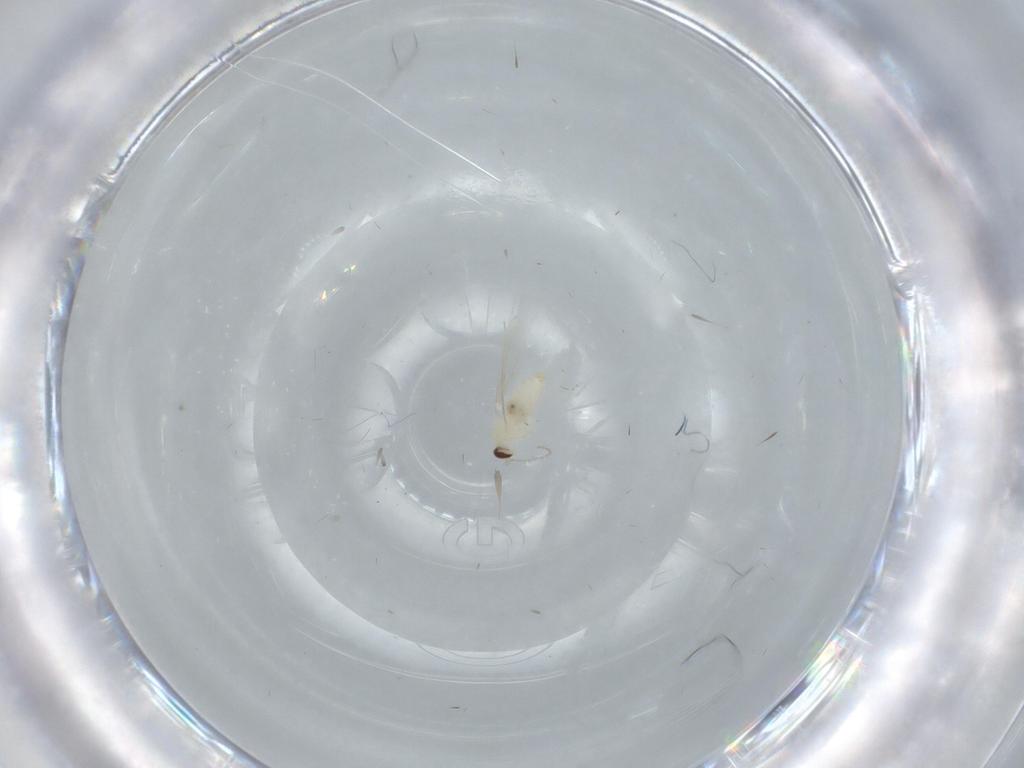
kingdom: Animalia
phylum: Arthropoda
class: Insecta
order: Diptera
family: Cecidomyiidae
